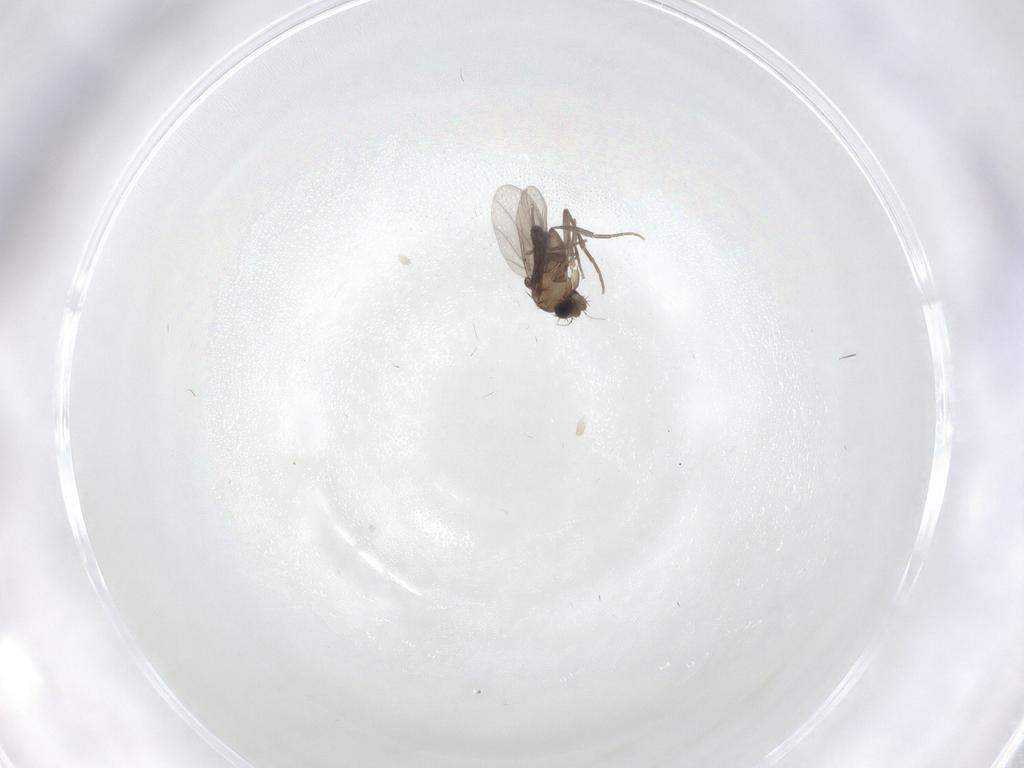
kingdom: Animalia
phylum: Arthropoda
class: Insecta
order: Diptera
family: Phoridae
